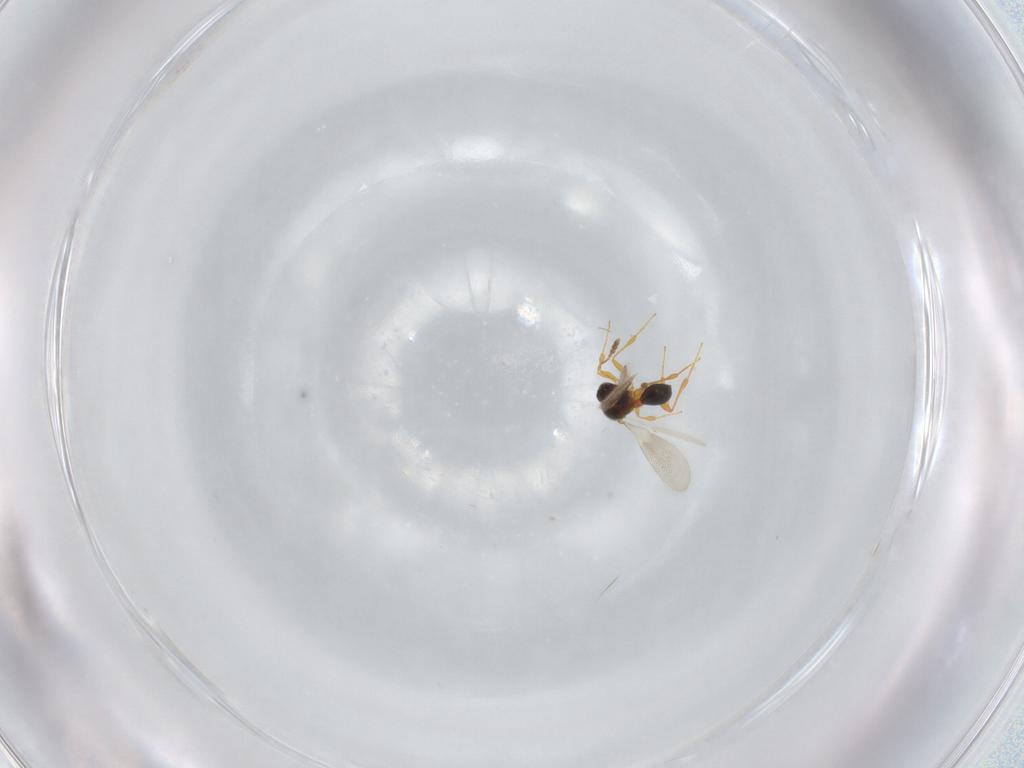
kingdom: Animalia
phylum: Arthropoda
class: Insecta
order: Hymenoptera
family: Platygastridae
